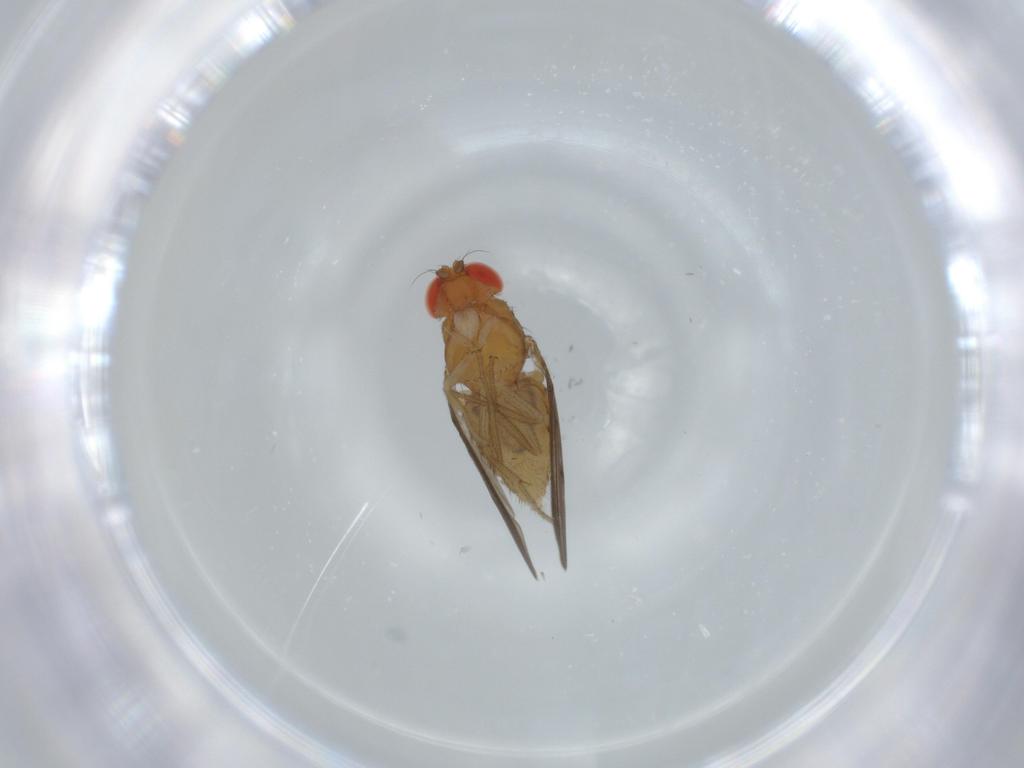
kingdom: Animalia
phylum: Arthropoda
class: Insecta
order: Diptera
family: Drosophilidae
